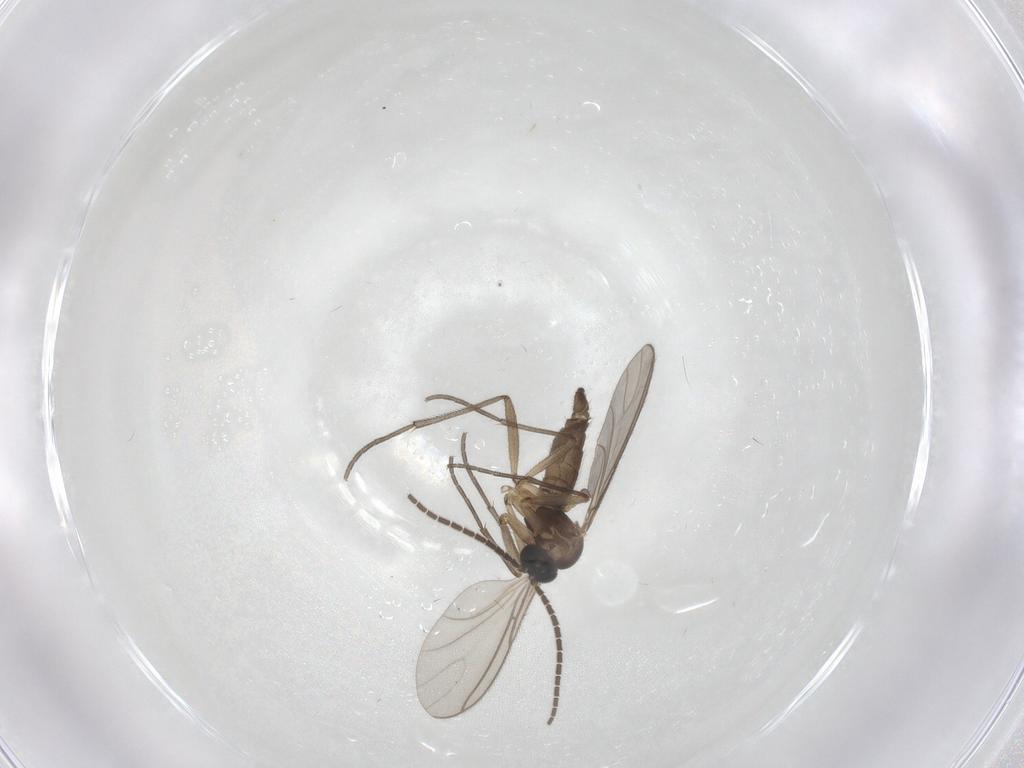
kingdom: Animalia
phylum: Arthropoda
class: Insecta
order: Diptera
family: Sciaridae
